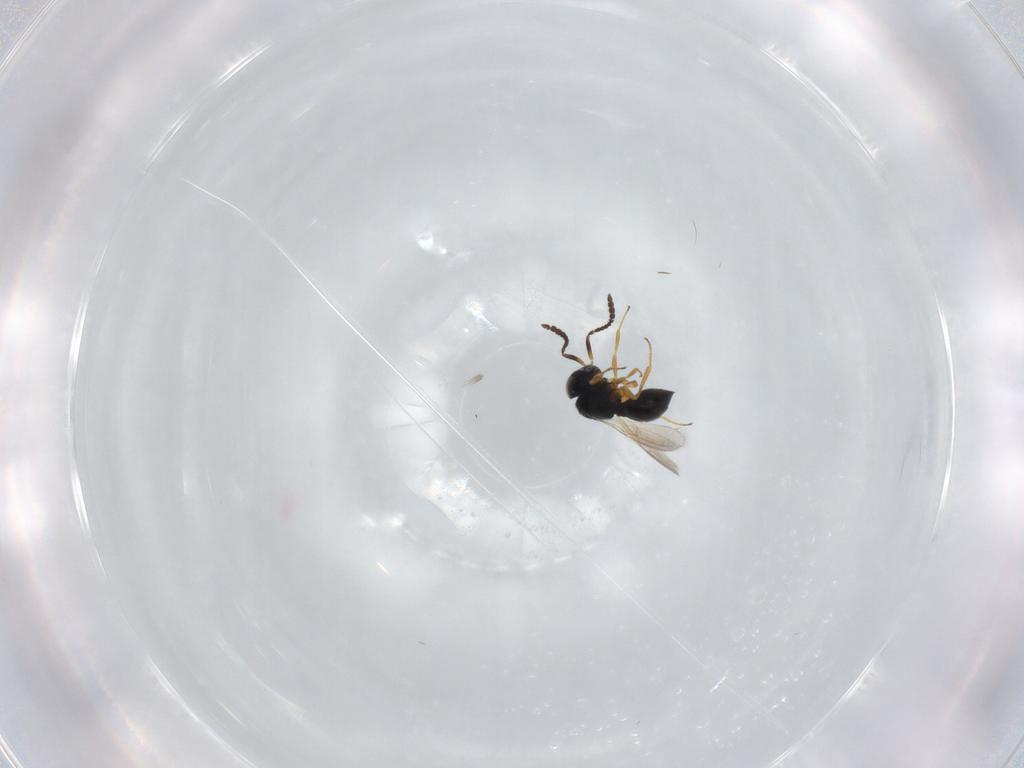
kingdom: Animalia
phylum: Arthropoda
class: Insecta
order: Hymenoptera
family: Scelionidae
